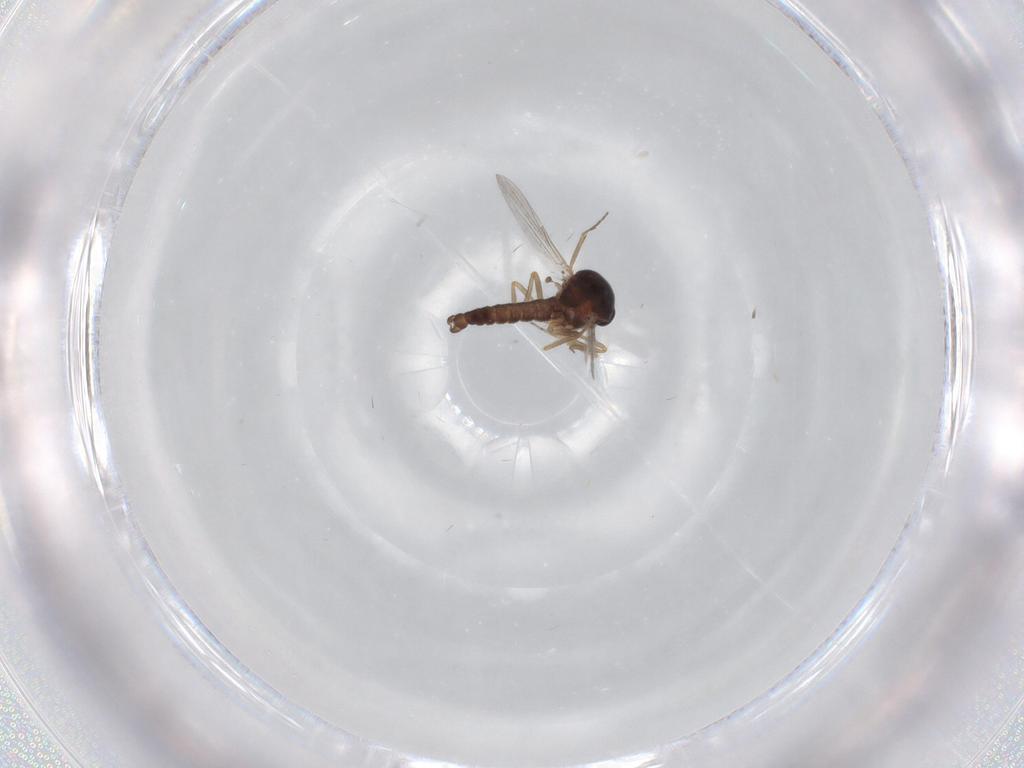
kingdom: Animalia
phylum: Arthropoda
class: Insecta
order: Diptera
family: Ceratopogonidae
